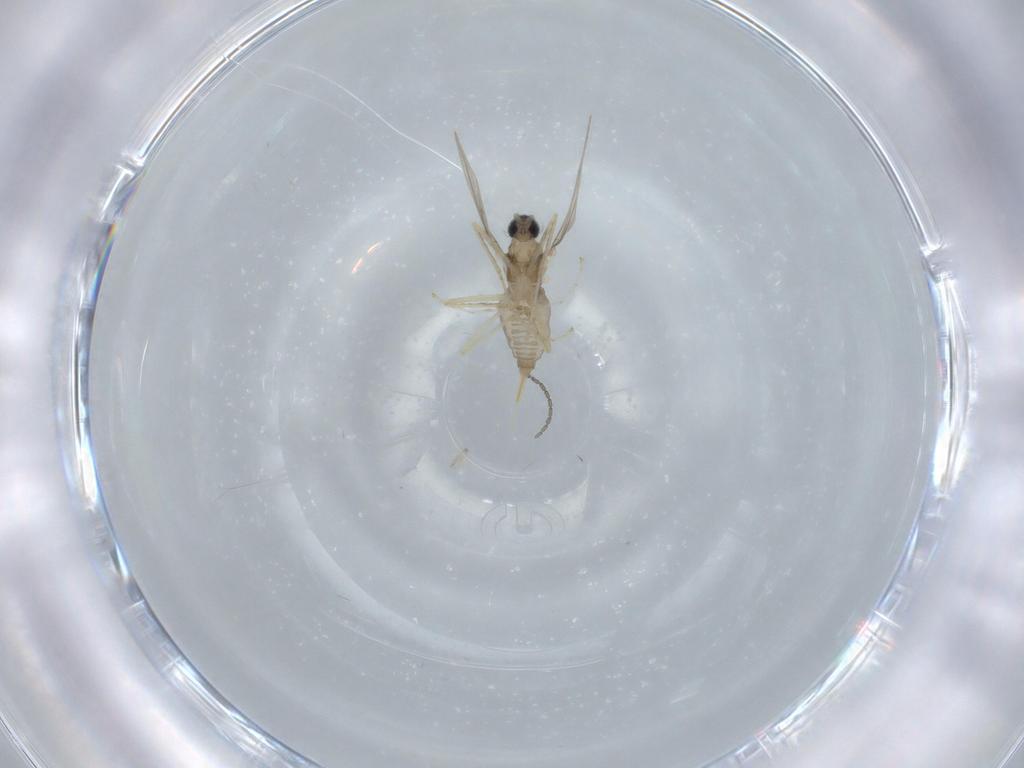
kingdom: Animalia
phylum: Arthropoda
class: Insecta
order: Diptera
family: Cecidomyiidae
